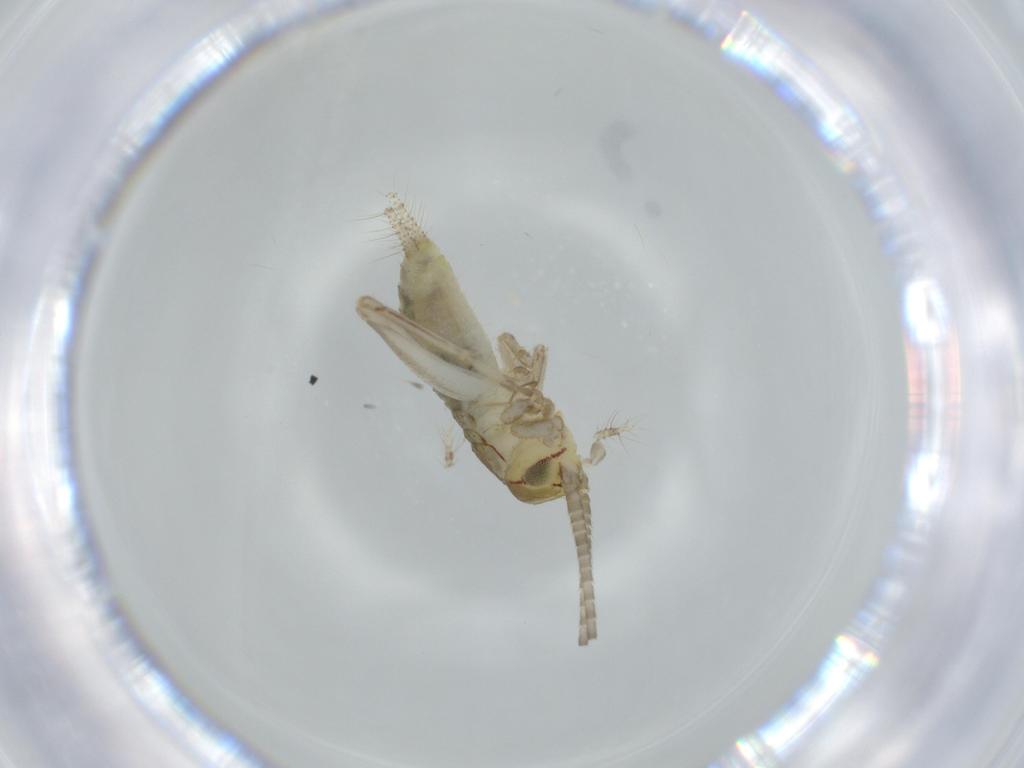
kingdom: Animalia
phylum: Arthropoda
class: Insecta
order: Orthoptera
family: Gryllidae
